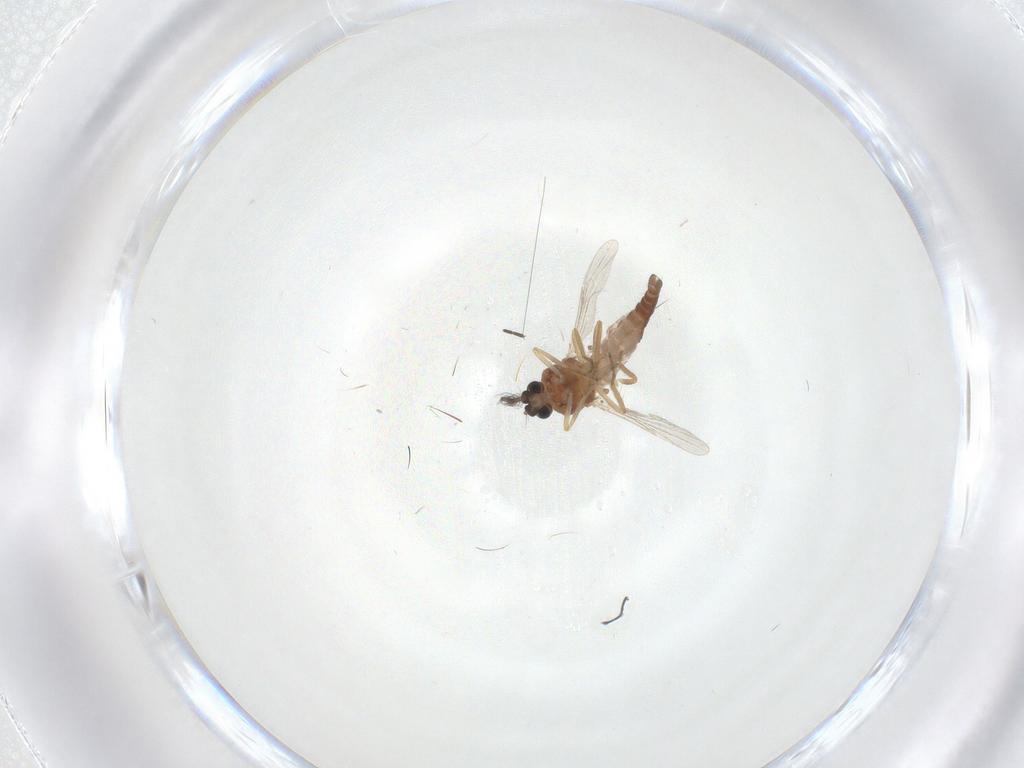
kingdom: Animalia
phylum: Arthropoda
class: Insecta
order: Diptera
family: Ceratopogonidae
